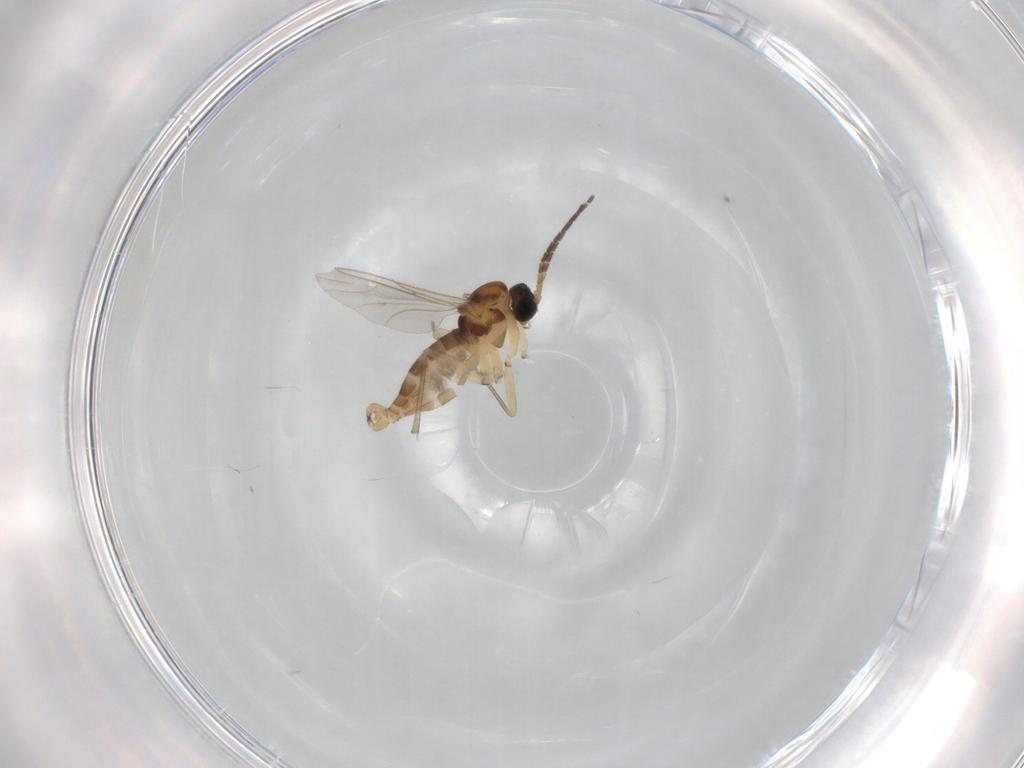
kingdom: Animalia
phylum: Arthropoda
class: Insecta
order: Diptera
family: Sciaridae
